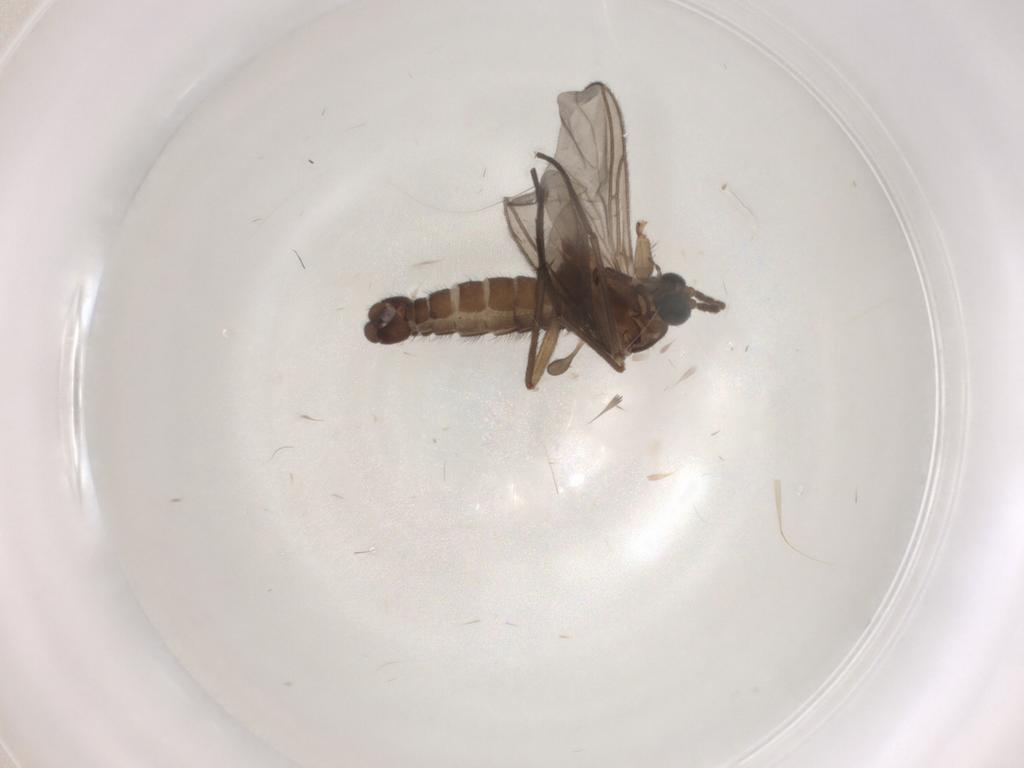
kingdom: Animalia
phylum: Arthropoda
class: Insecta
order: Diptera
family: Sciaridae
